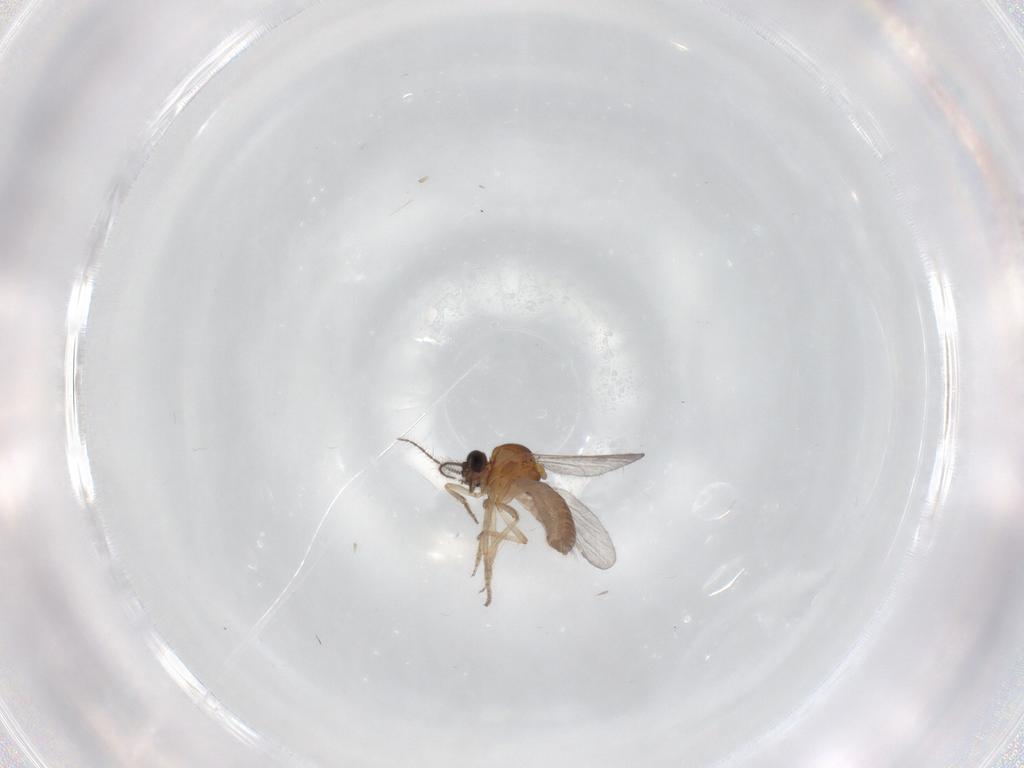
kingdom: Animalia
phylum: Arthropoda
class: Insecta
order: Diptera
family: Ceratopogonidae
